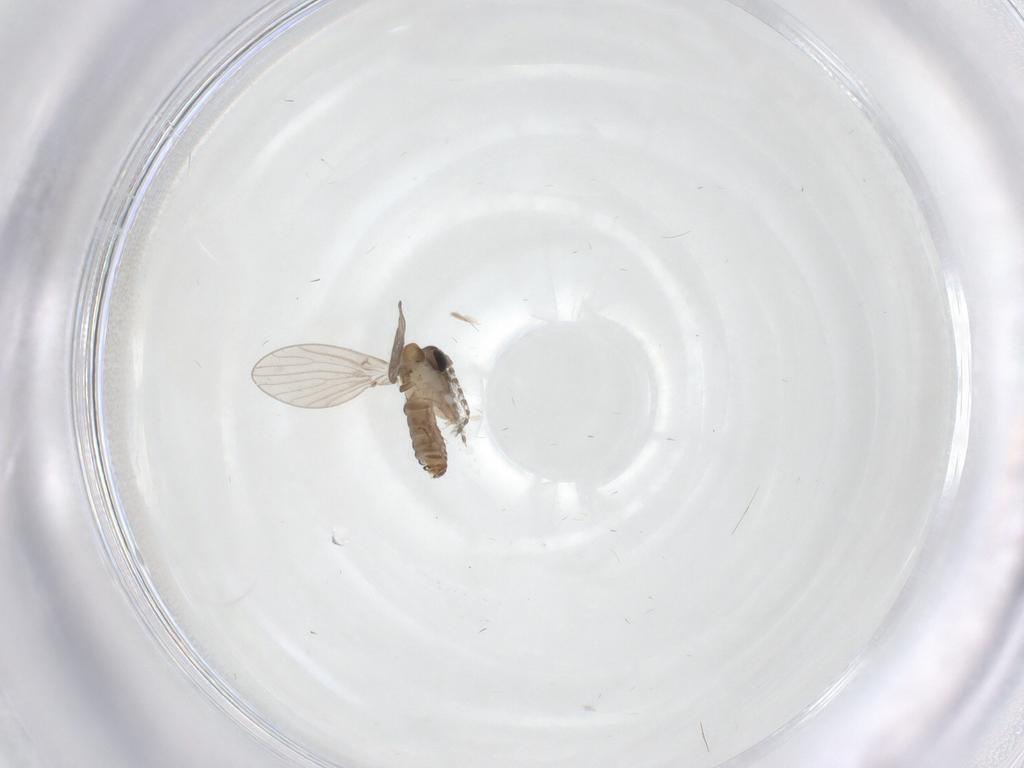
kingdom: Animalia
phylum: Arthropoda
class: Insecta
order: Diptera
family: Psychodidae
